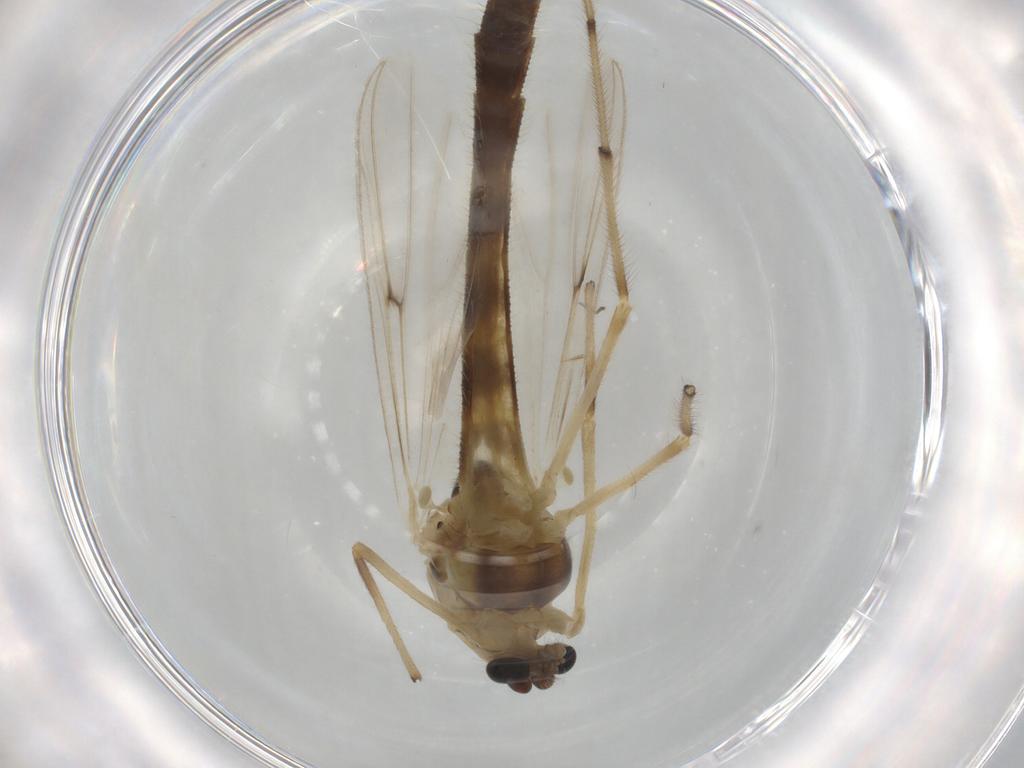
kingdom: Animalia
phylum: Arthropoda
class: Insecta
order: Diptera
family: Cecidomyiidae
